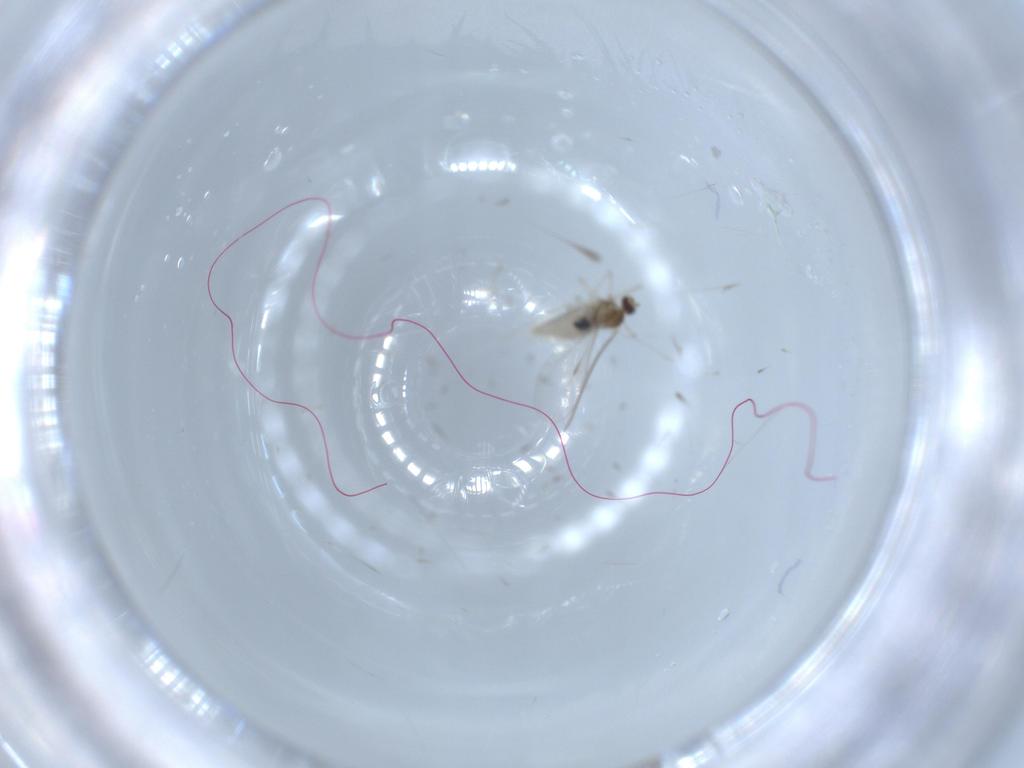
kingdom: Animalia
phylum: Arthropoda
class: Insecta
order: Diptera
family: Cecidomyiidae
